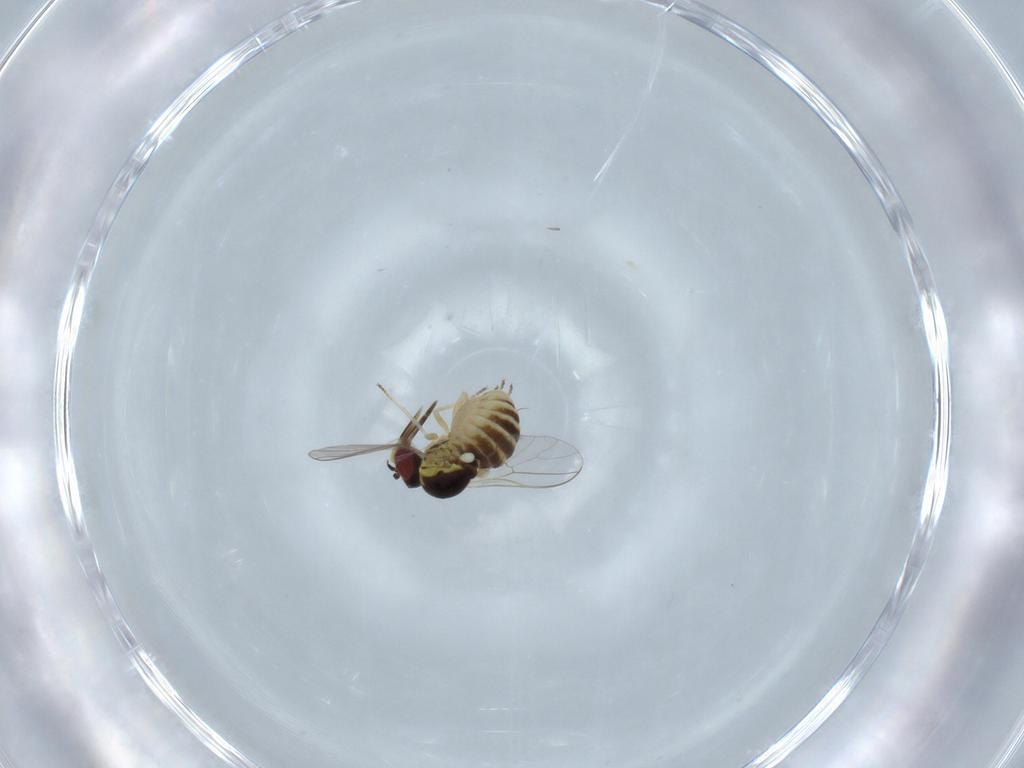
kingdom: Animalia
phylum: Arthropoda
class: Insecta
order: Diptera
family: Bombyliidae
